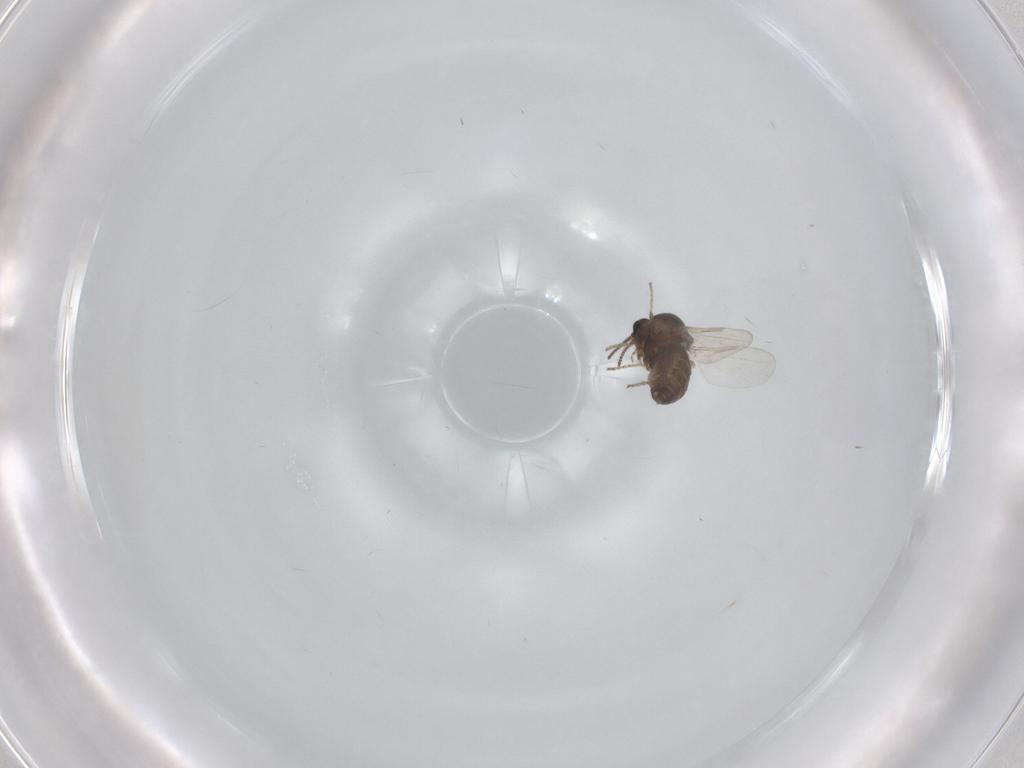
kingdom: Animalia
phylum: Arthropoda
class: Insecta
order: Diptera
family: Ceratopogonidae
